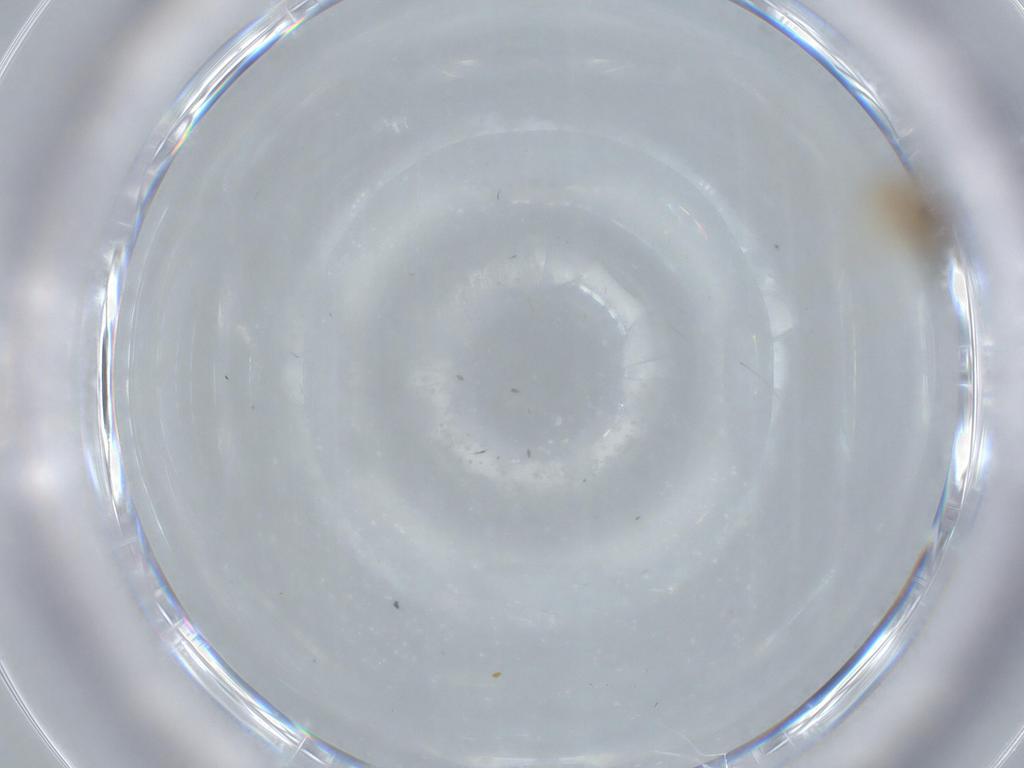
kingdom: Animalia
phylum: Arthropoda
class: Insecta
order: Diptera
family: Cecidomyiidae
